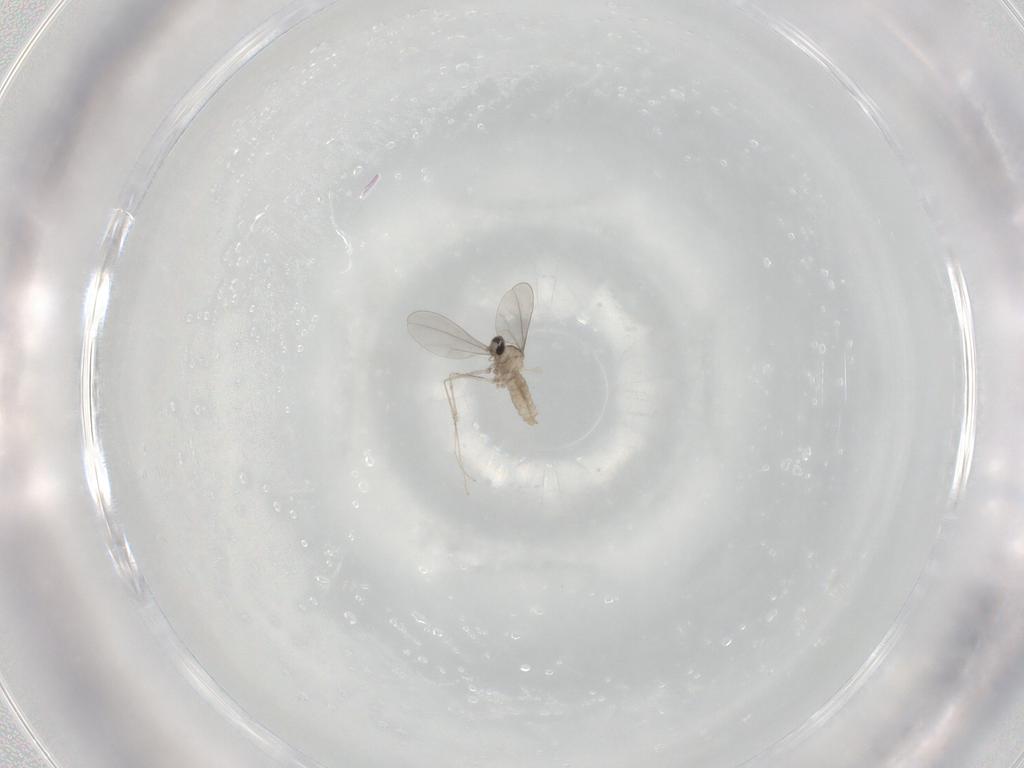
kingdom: Animalia
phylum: Arthropoda
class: Insecta
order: Diptera
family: Cecidomyiidae
